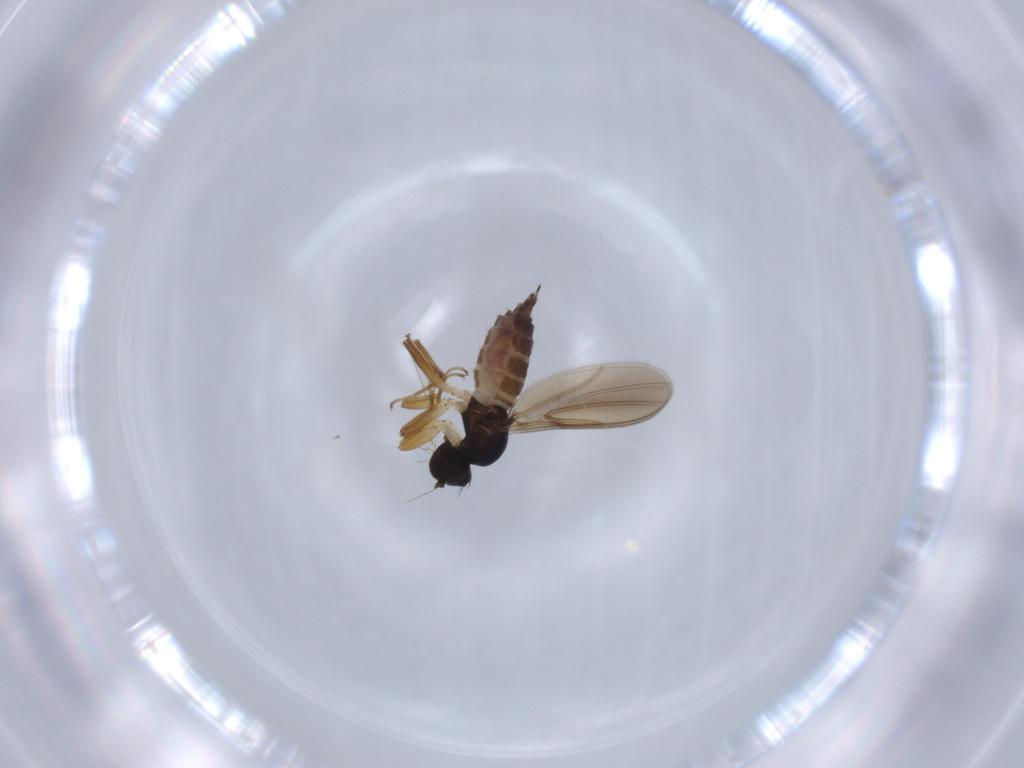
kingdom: Animalia
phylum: Arthropoda
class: Insecta
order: Diptera
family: Hybotidae
